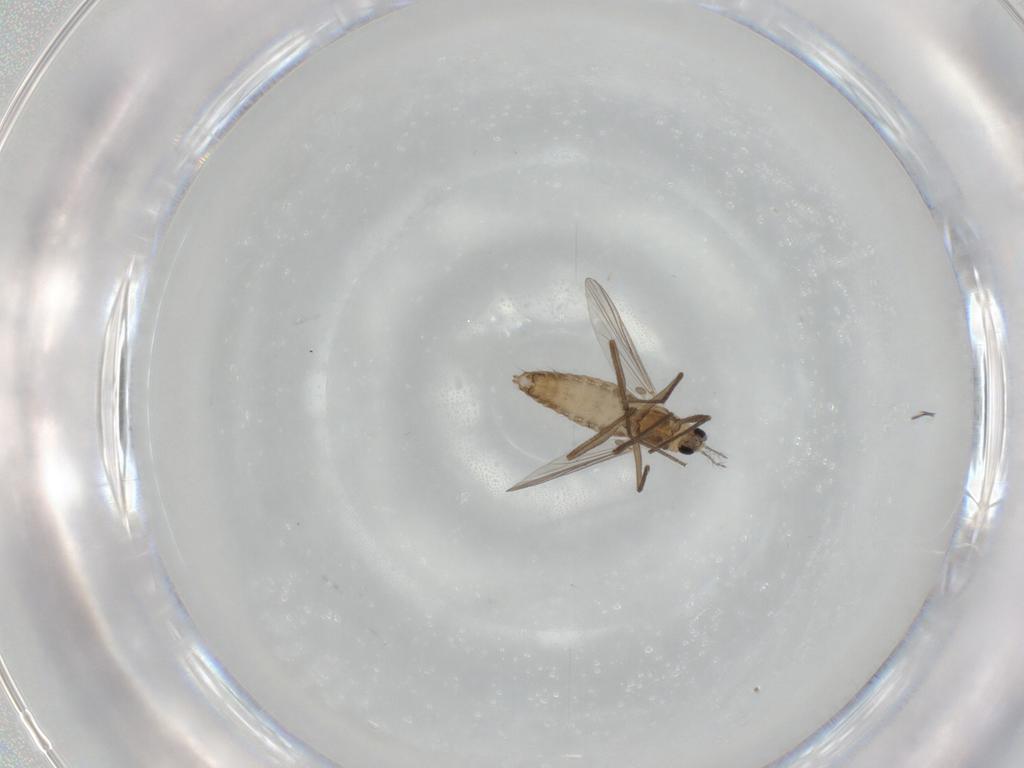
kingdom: Animalia
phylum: Arthropoda
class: Insecta
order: Diptera
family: Chironomidae
